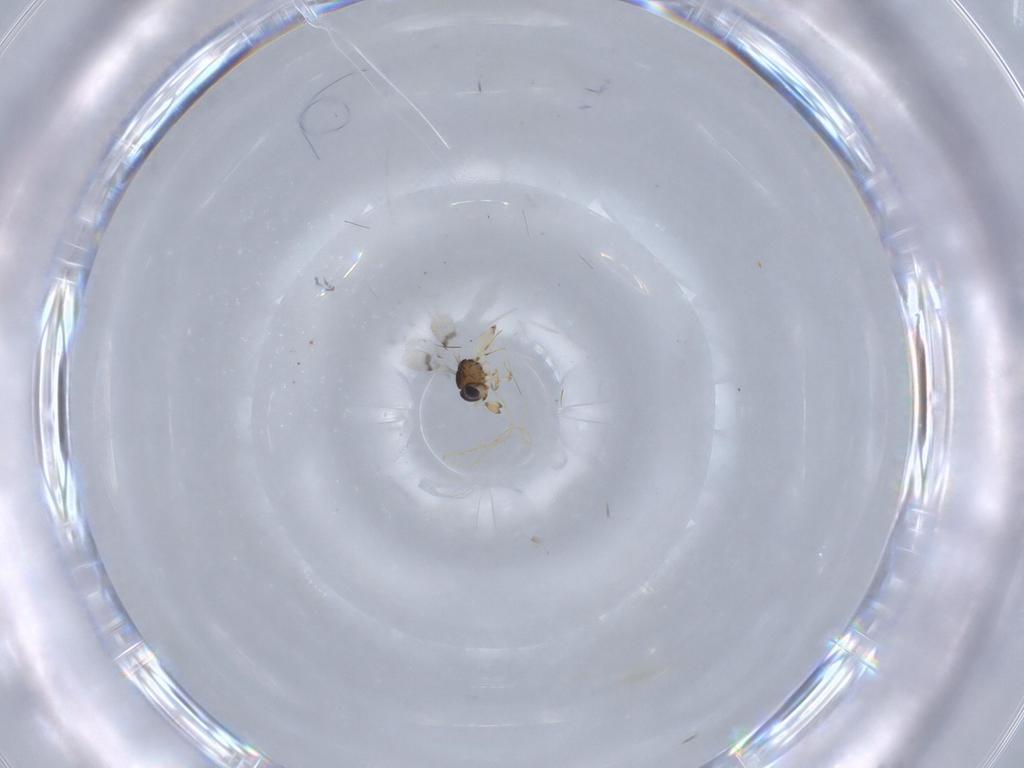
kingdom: Animalia
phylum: Arthropoda
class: Insecta
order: Hymenoptera
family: Scelionidae
